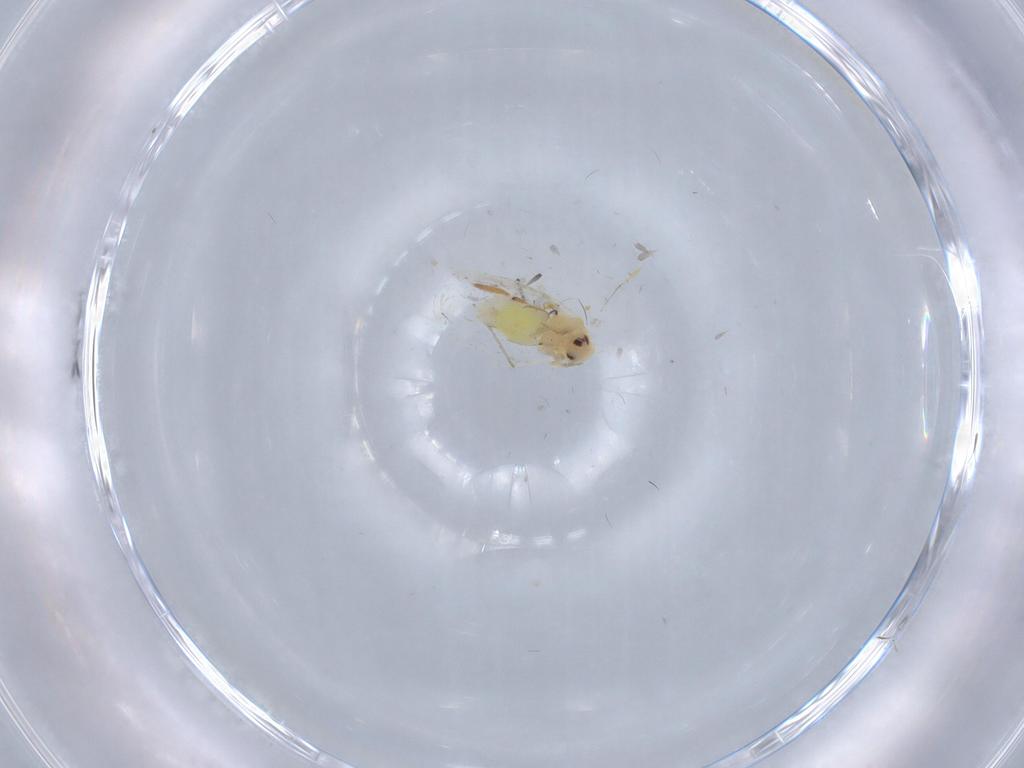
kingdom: Animalia
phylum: Arthropoda
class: Insecta
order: Hemiptera
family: Aleyrodidae
